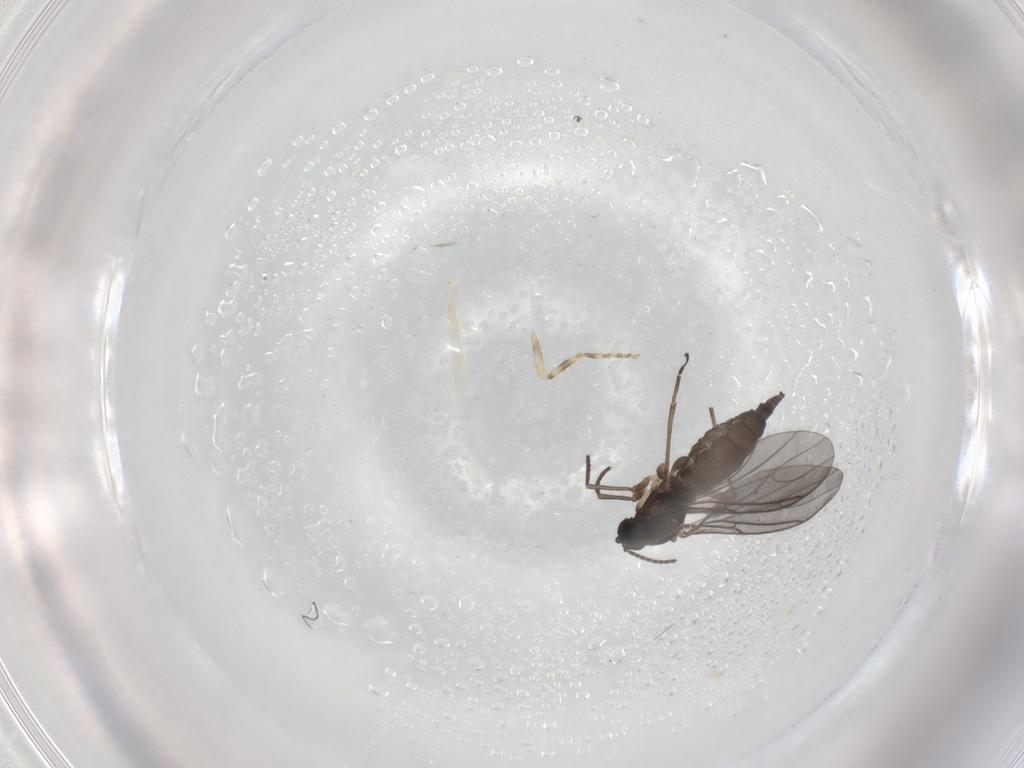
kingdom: Animalia
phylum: Arthropoda
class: Insecta
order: Diptera
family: Sciaridae
